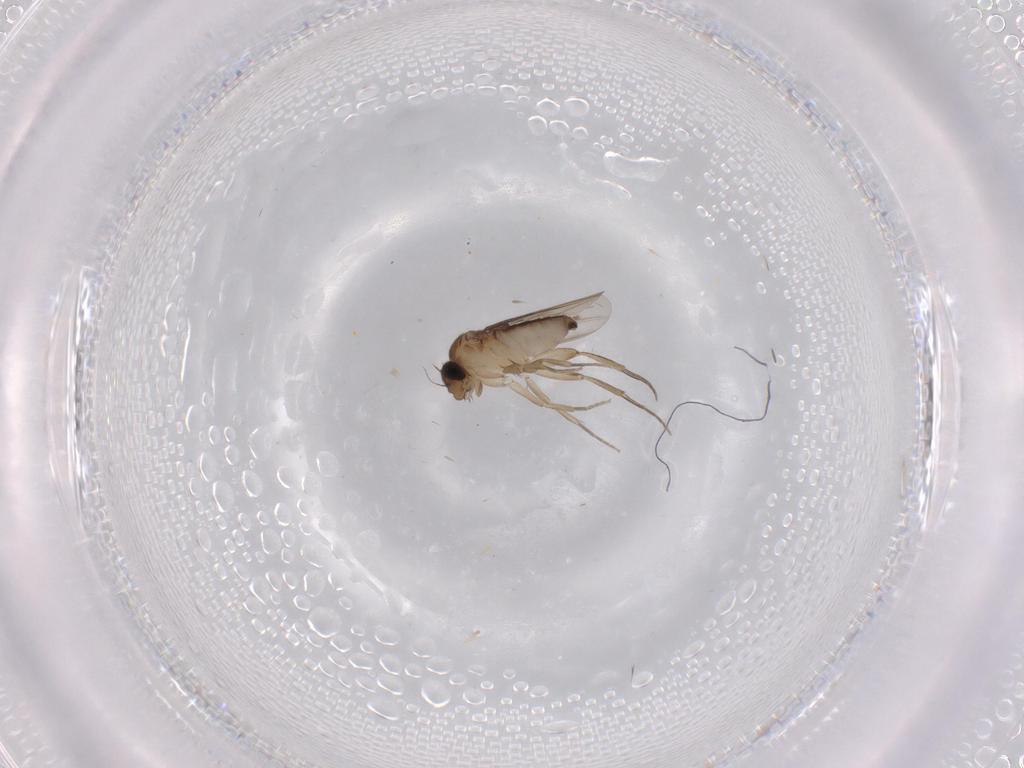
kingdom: Animalia
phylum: Arthropoda
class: Insecta
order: Diptera
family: Phoridae
